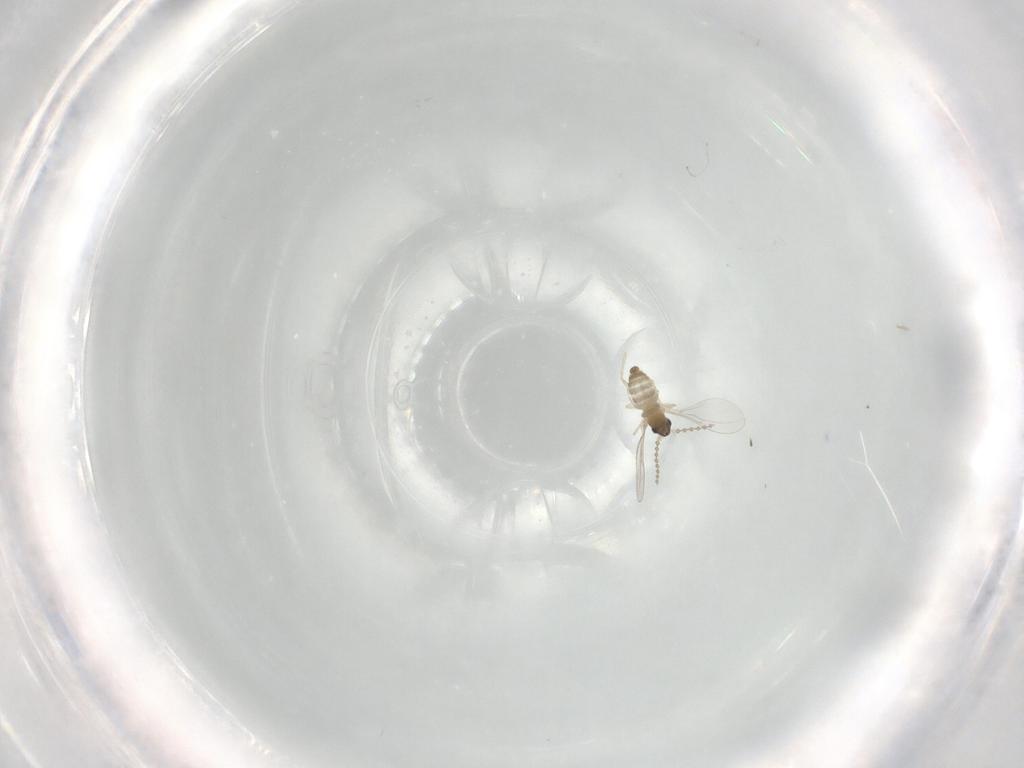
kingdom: Animalia
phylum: Arthropoda
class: Insecta
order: Diptera
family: Cecidomyiidae
